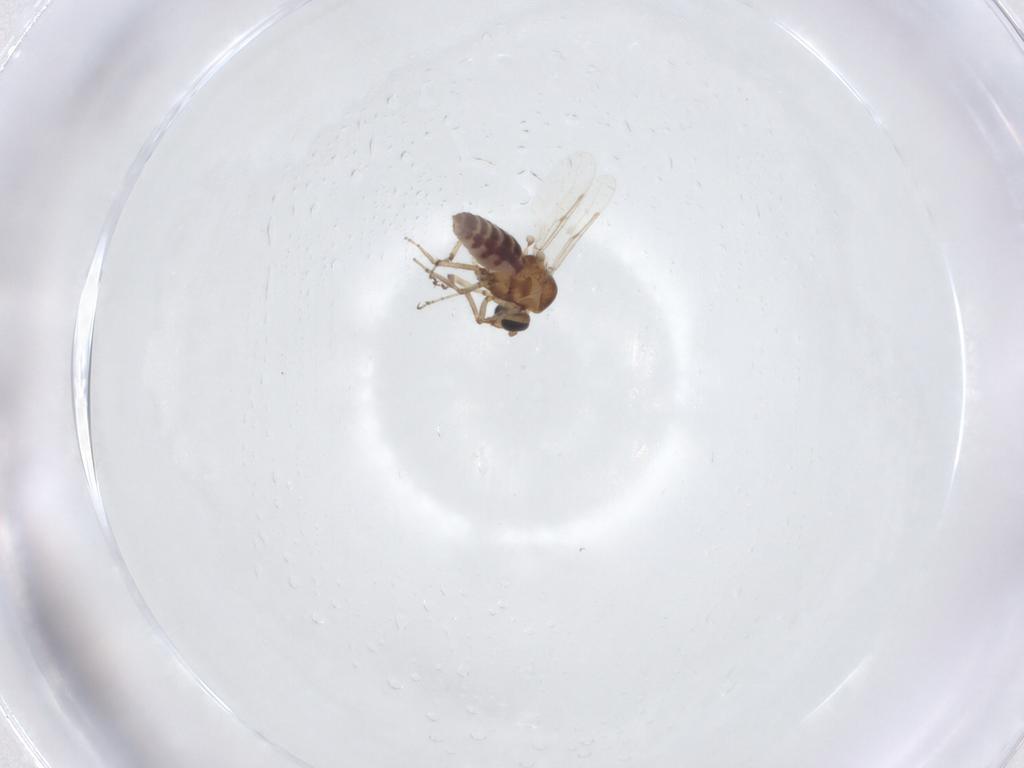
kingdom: Animalia
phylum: Arthropoda
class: Insecta
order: Diptera
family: Ceratopogonidae
